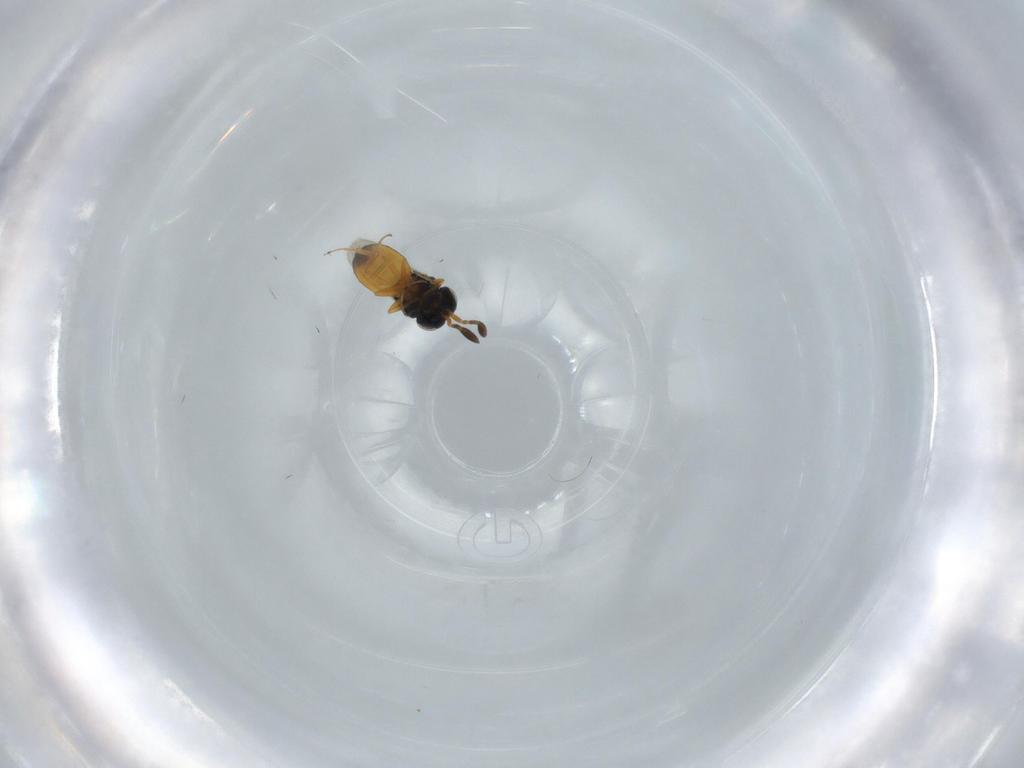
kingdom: Animalia
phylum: Arthropoda
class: Insecta
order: Hymenoptera
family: Scelionidae
